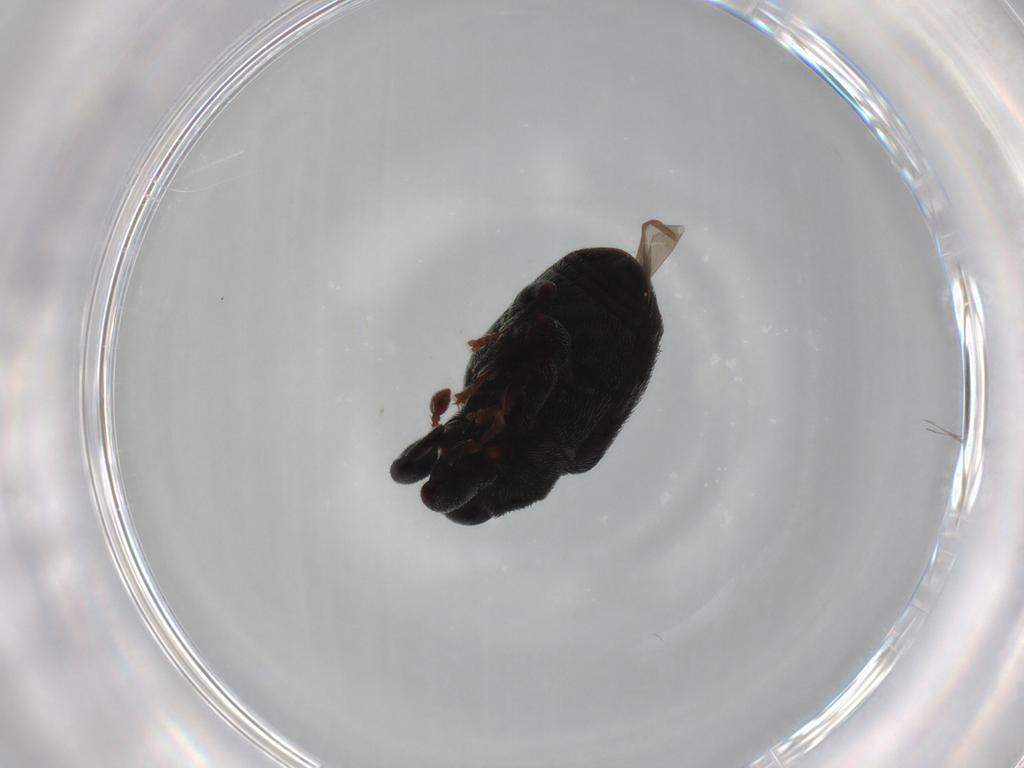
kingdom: Animalia
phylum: Arthropoda
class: Insecta
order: Coleoptera
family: Curculionidae
